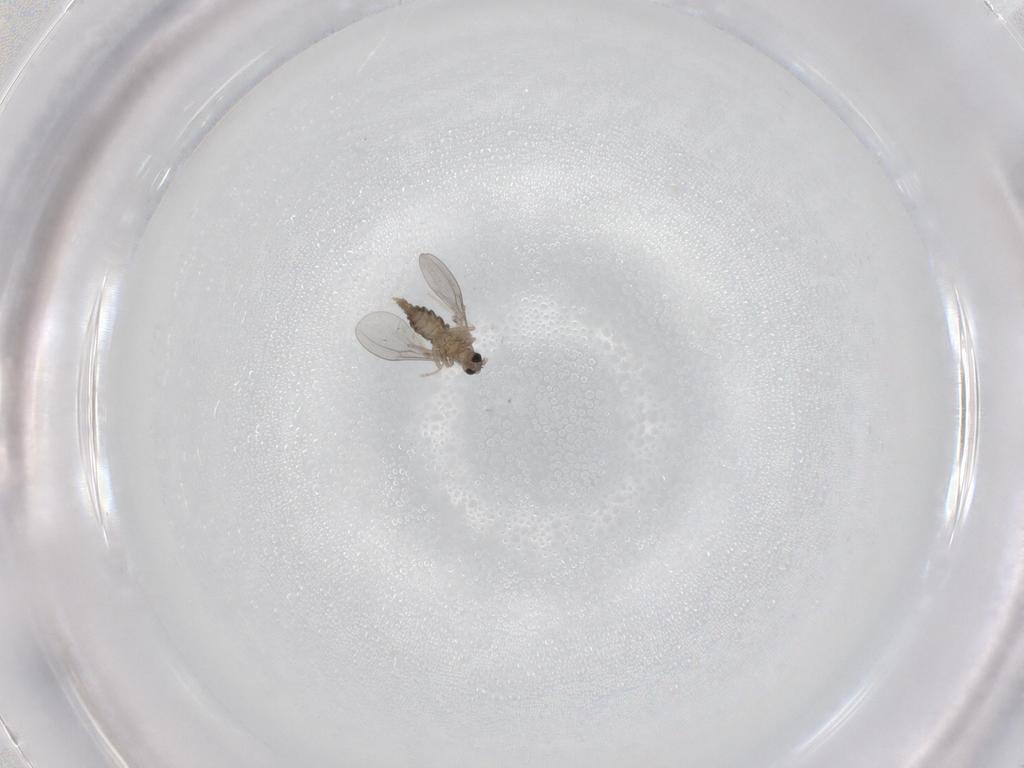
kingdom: Animalia
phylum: Arthropoda
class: Insecta
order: Diptera
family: Cecidomyiidae
